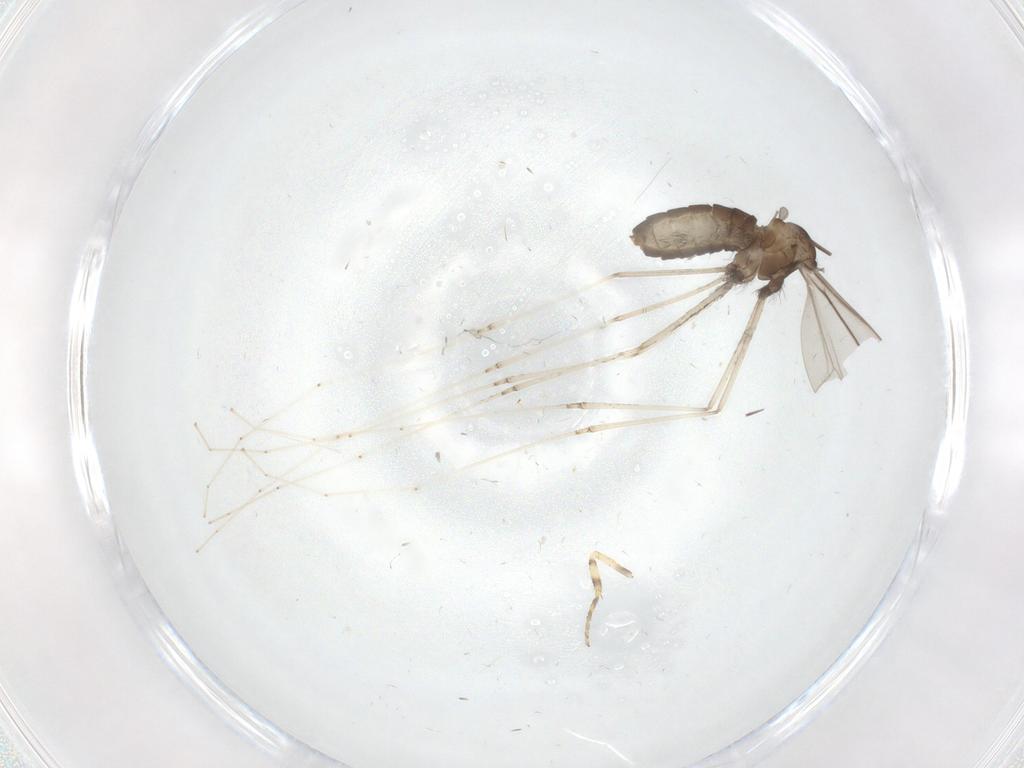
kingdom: Animalia
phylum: Arthropoda
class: Insecta
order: Diptera
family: Cecidomyiidae
